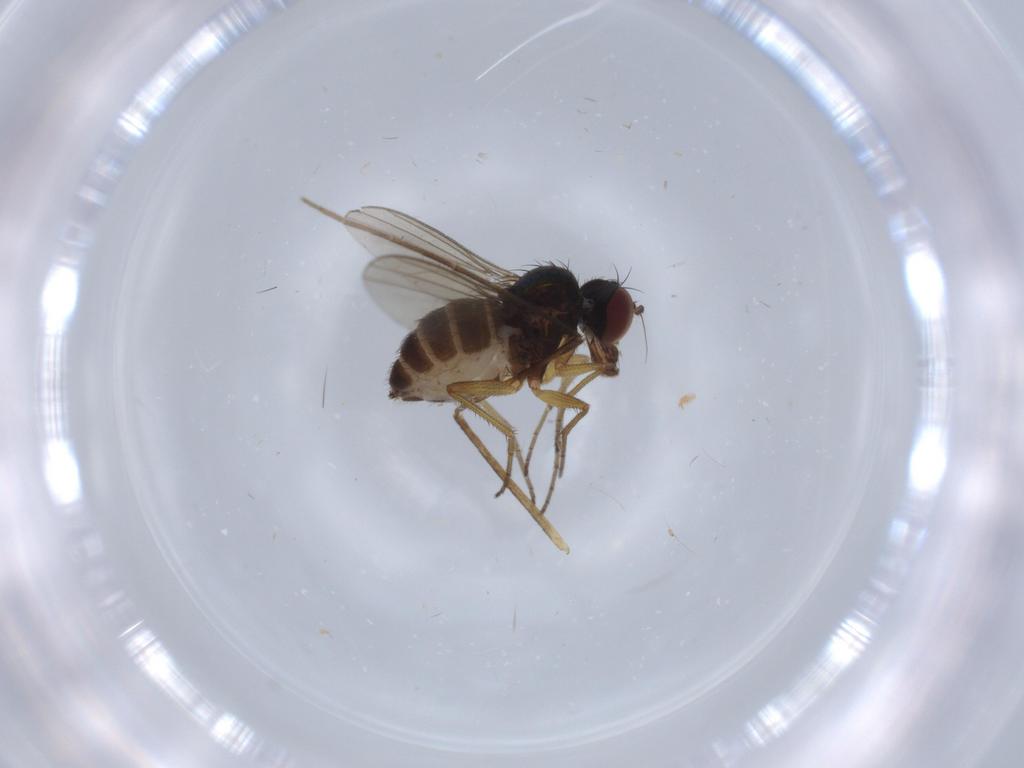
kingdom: Animalia
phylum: Arthropoda
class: Insecta
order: Diptera
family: Dolichopodidae
